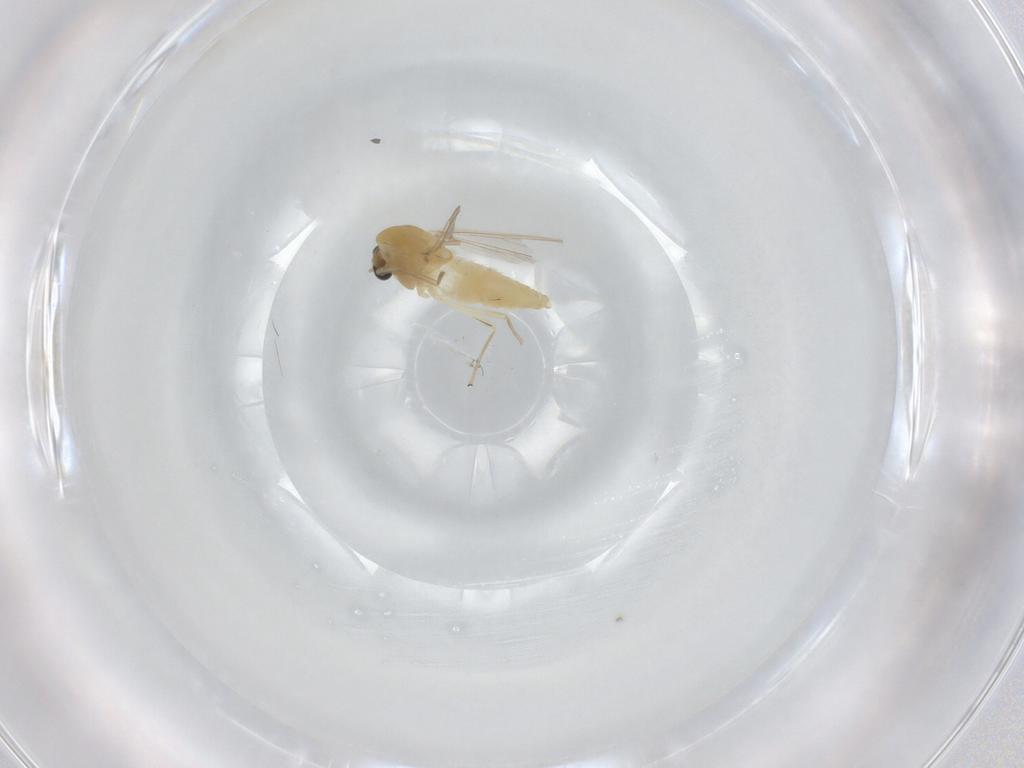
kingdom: Animalia
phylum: Arthropoda
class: Insecta
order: Diptera
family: Chironomidae
